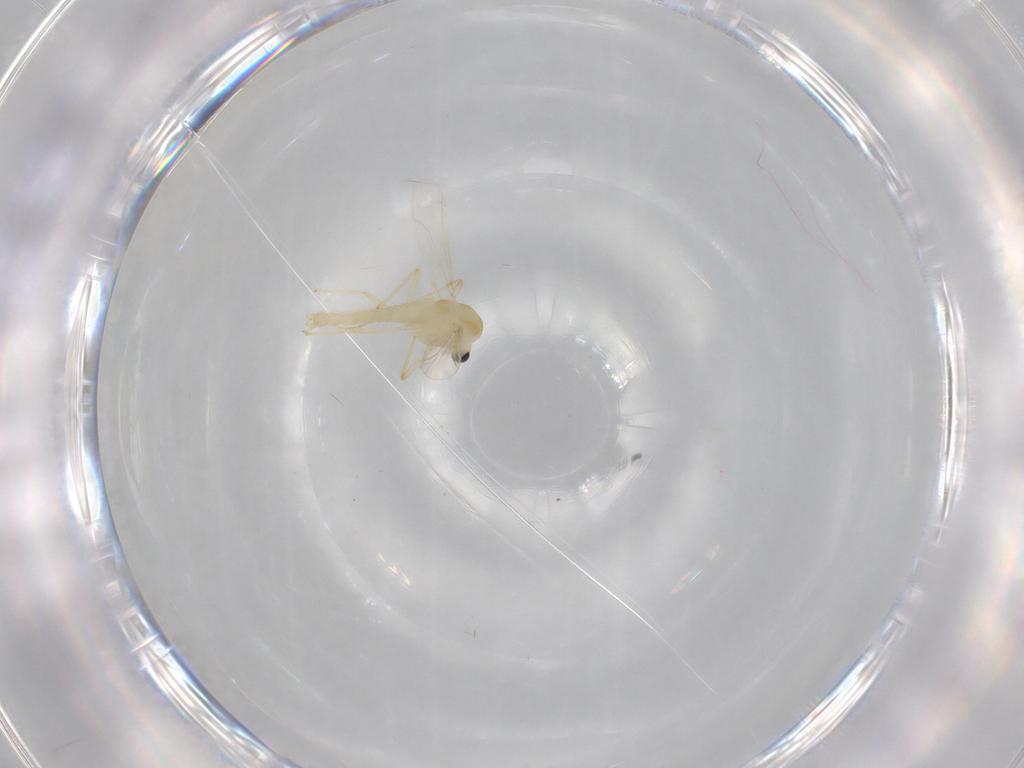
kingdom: Animalia
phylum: Arthropoda
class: Insecta
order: Diptera
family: Chironomidae
